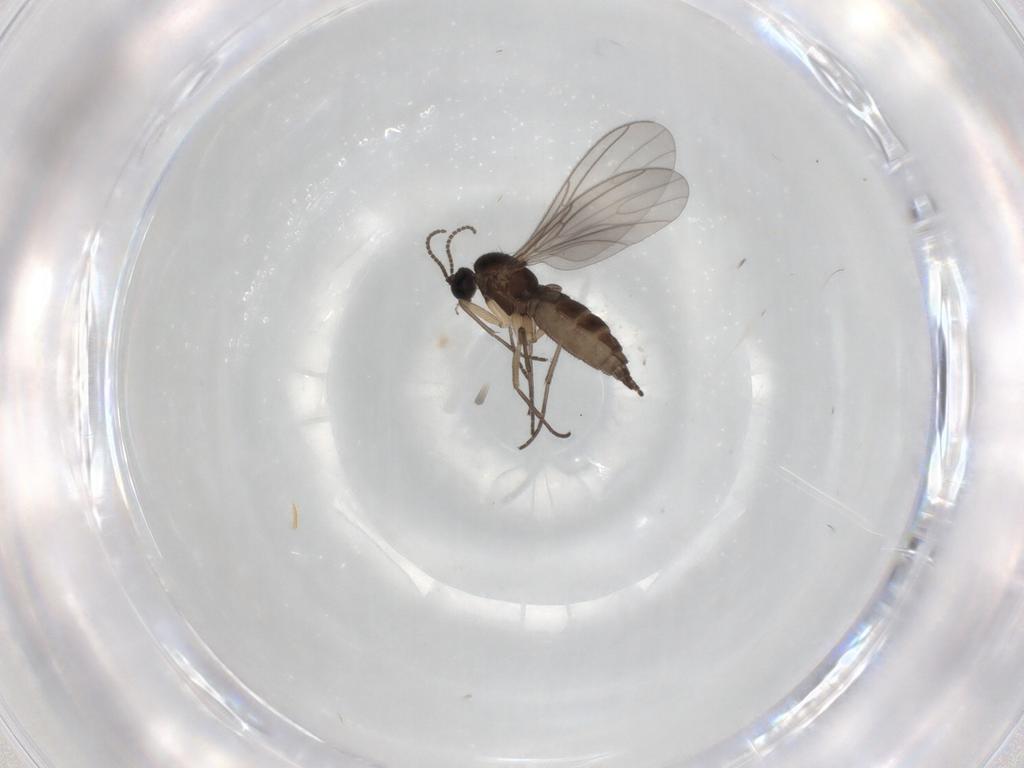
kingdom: Animalia
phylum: Arthropoda
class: Insecta
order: Diptera
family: Sciaridae
